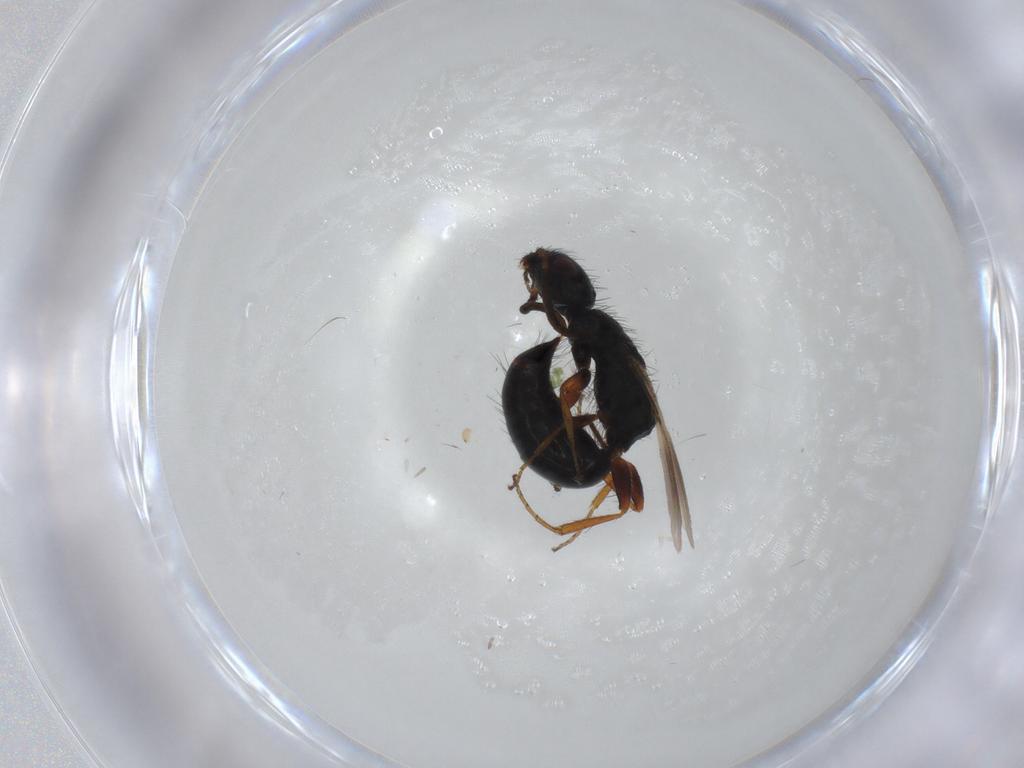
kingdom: Animalia
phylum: Arthropoda
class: Insecta
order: Hymenoptera
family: Bethylidae
